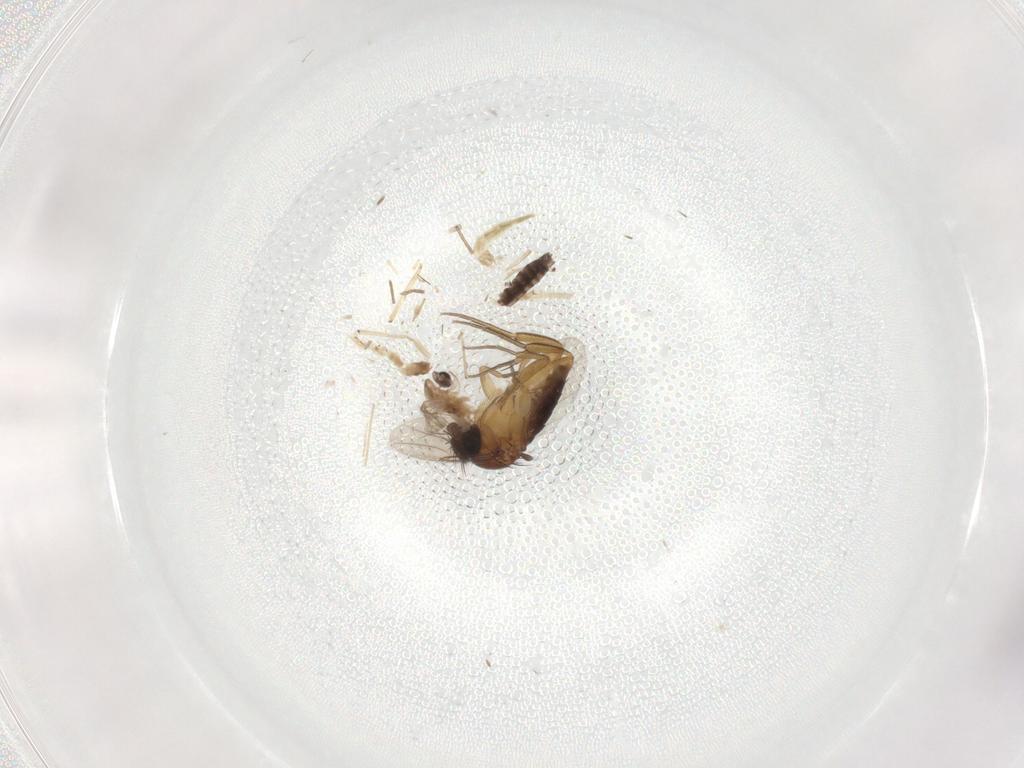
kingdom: Animalia
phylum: Arthropoda
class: Insecta
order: Diptera
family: Phoridae
